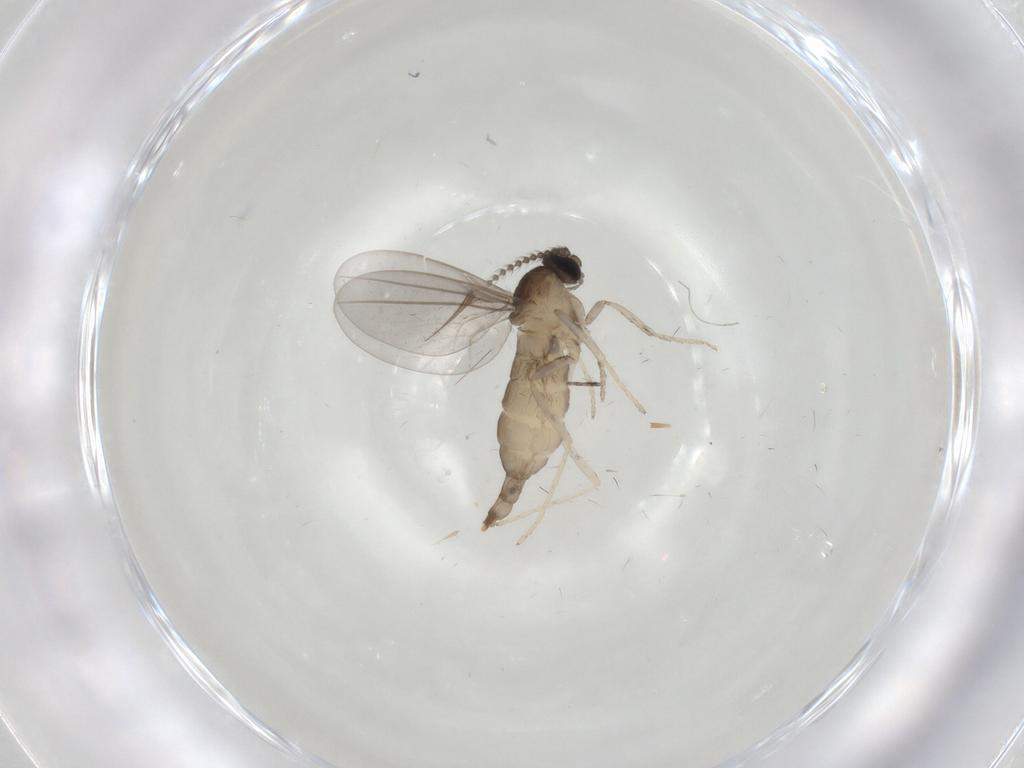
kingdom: Animalia
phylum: Arthropoda
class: Insecta
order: Diptera
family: Cecidomyiidae
